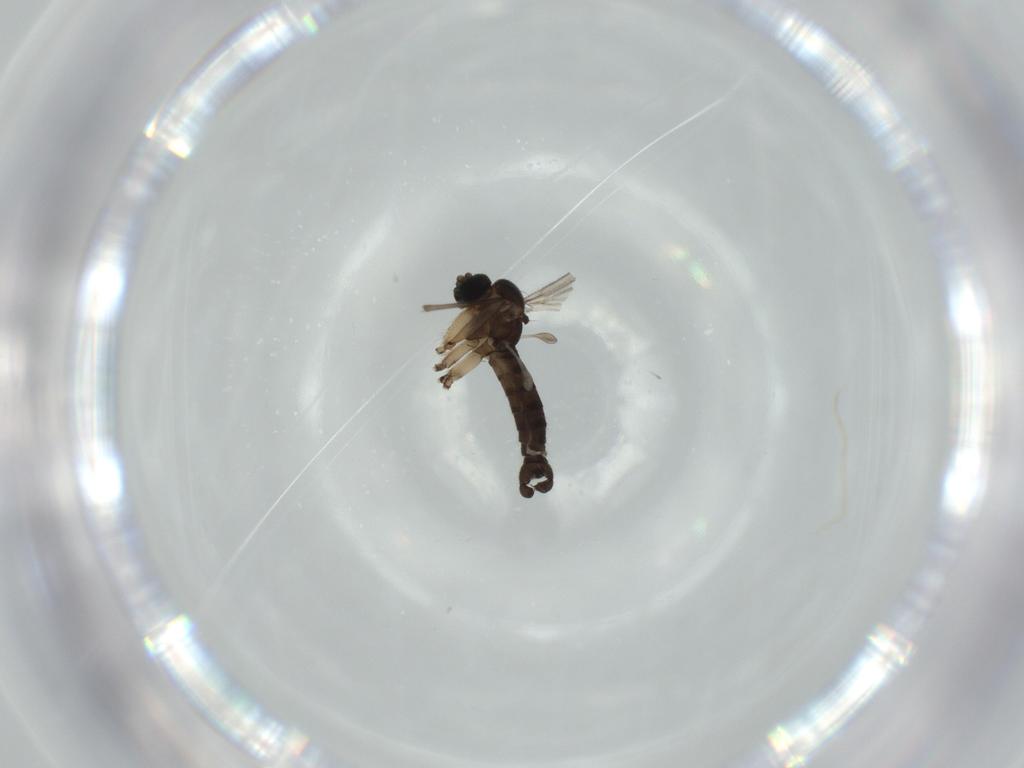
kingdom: Animalia
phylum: Arthropoda
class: Insecta
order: Diptera
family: Sciaridae
